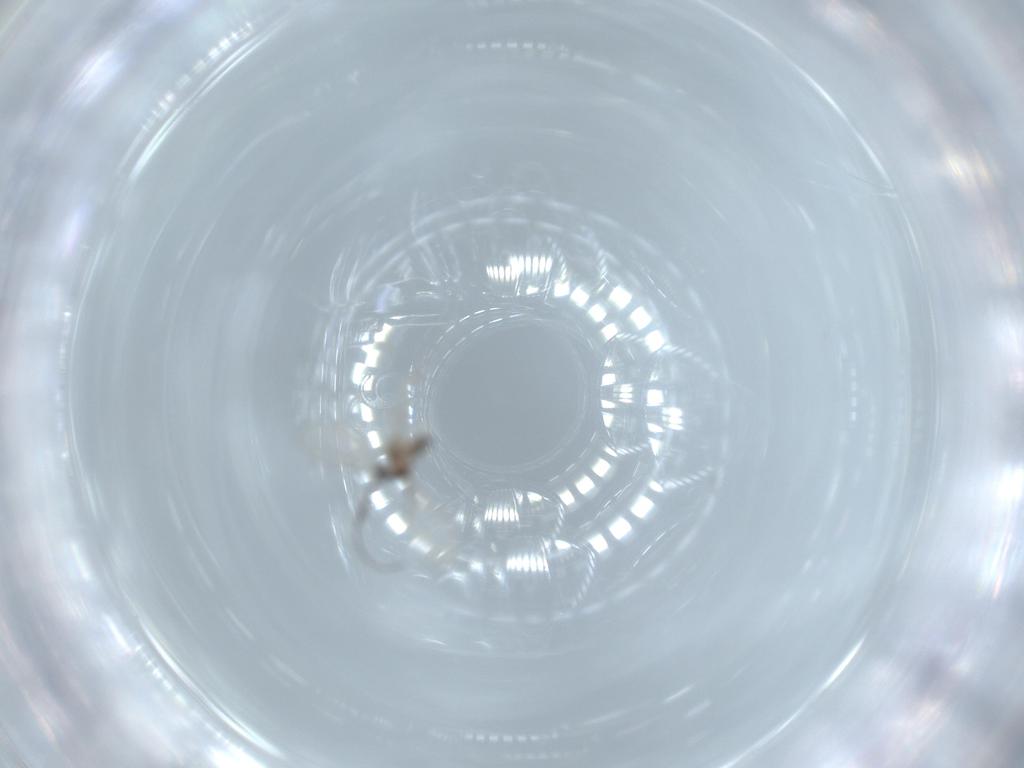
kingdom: Animalia
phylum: Arthropoda
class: Insecta
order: Diptera
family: Cecidomyiidae
